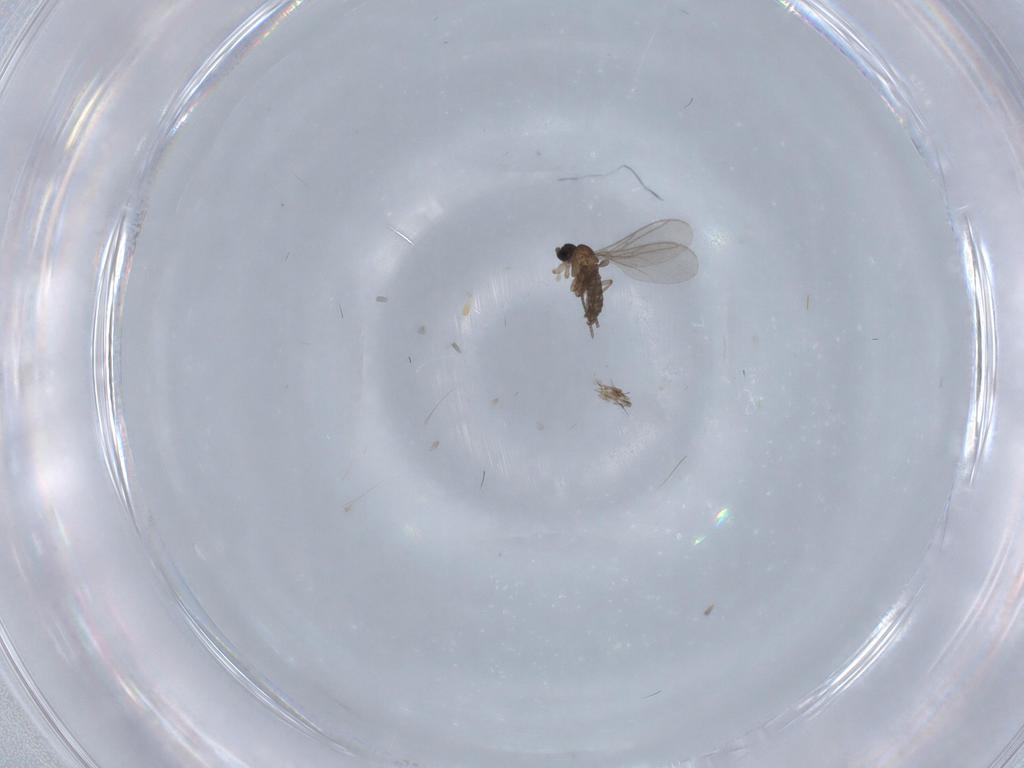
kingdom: Animalia
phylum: Arthropoda
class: Insecta
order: Diptera
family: Sciaridae
